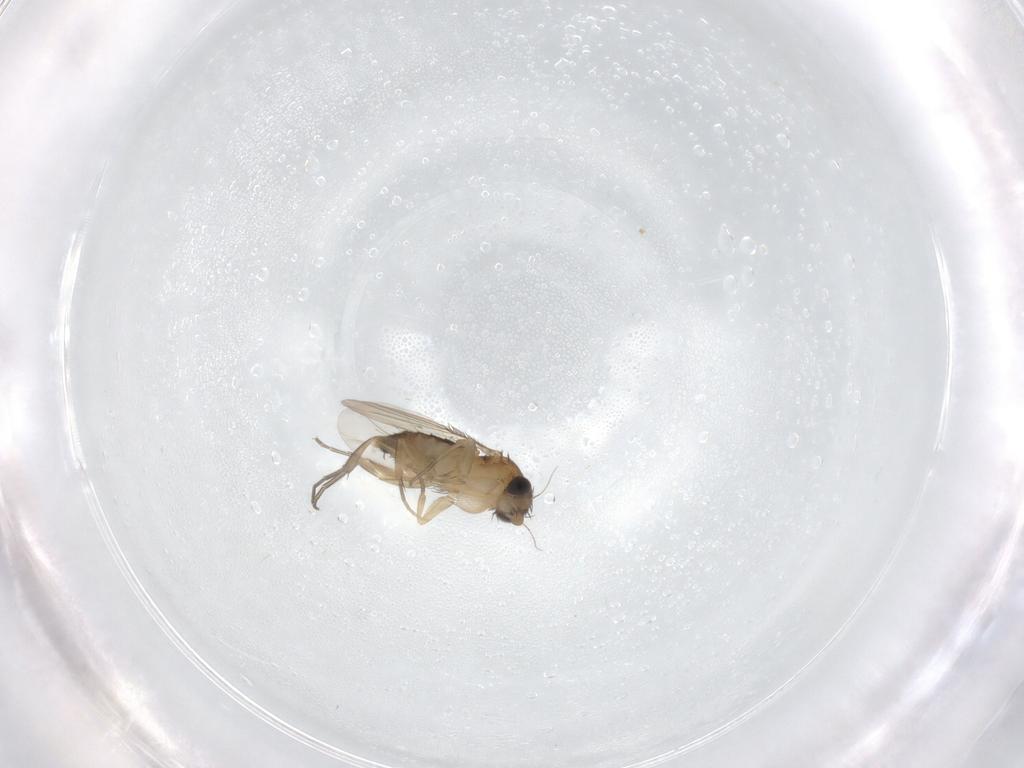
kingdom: Animalia
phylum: Arthropoda
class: Insecta
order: Diptera
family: Phoridae
